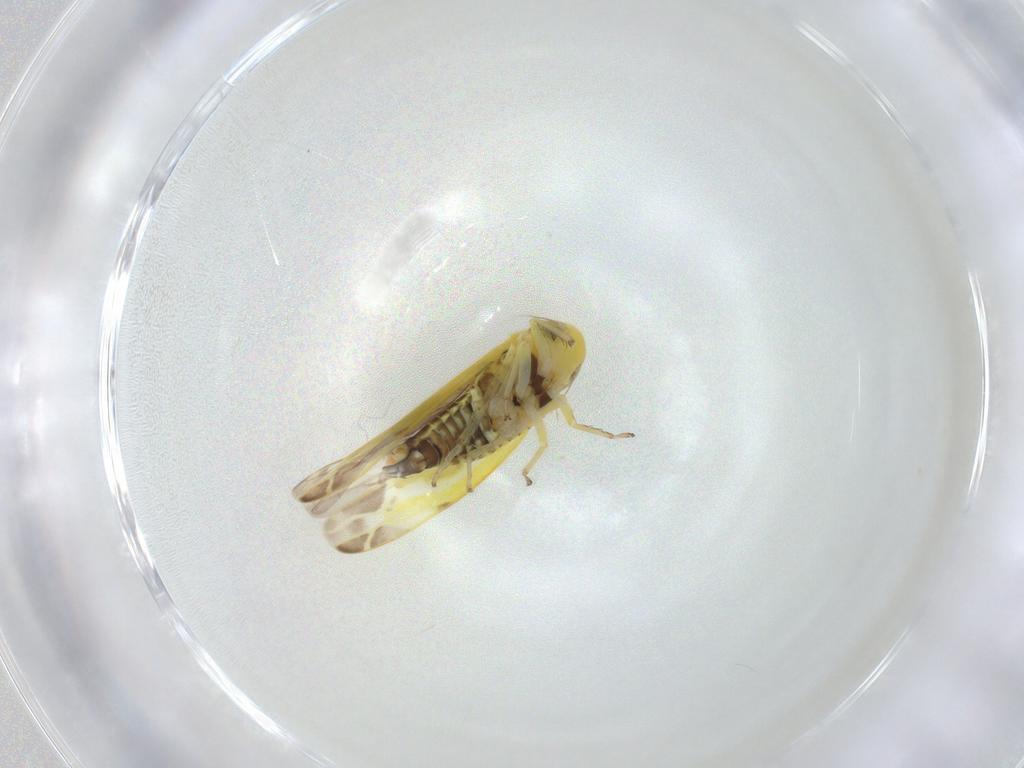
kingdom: Animalia
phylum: Arthropoda
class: Insecta
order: Hemiptera
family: Cicadellidae
